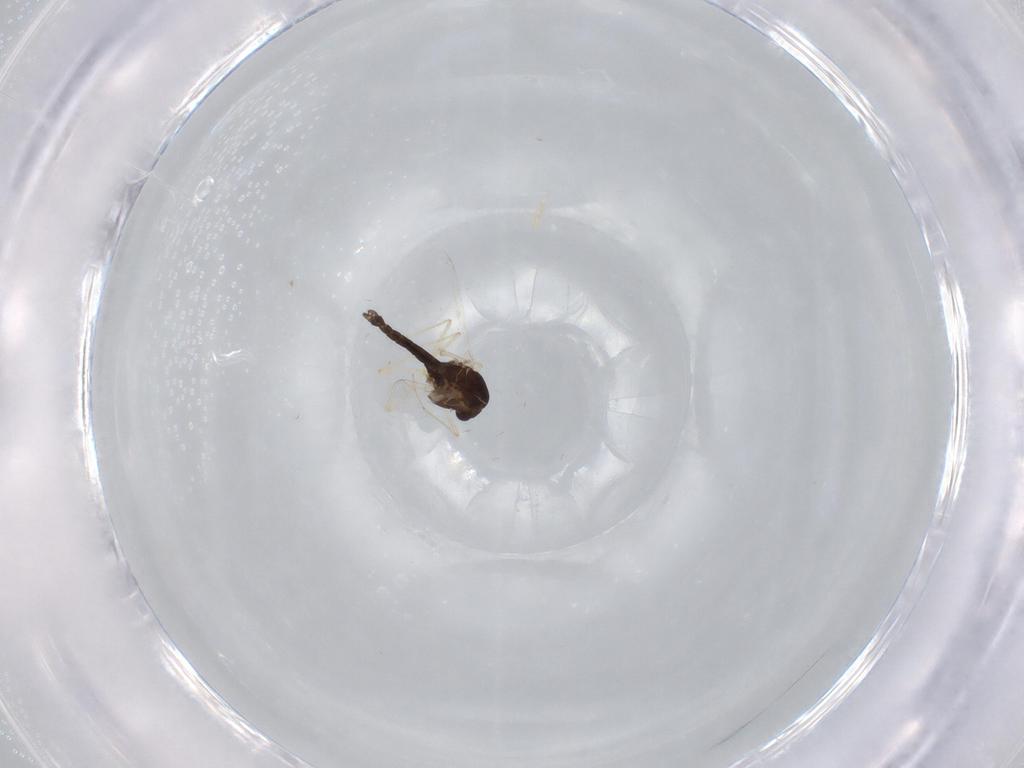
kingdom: Animalia
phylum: Arthropoda
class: Insecta
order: Diptera
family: Chironomidae
